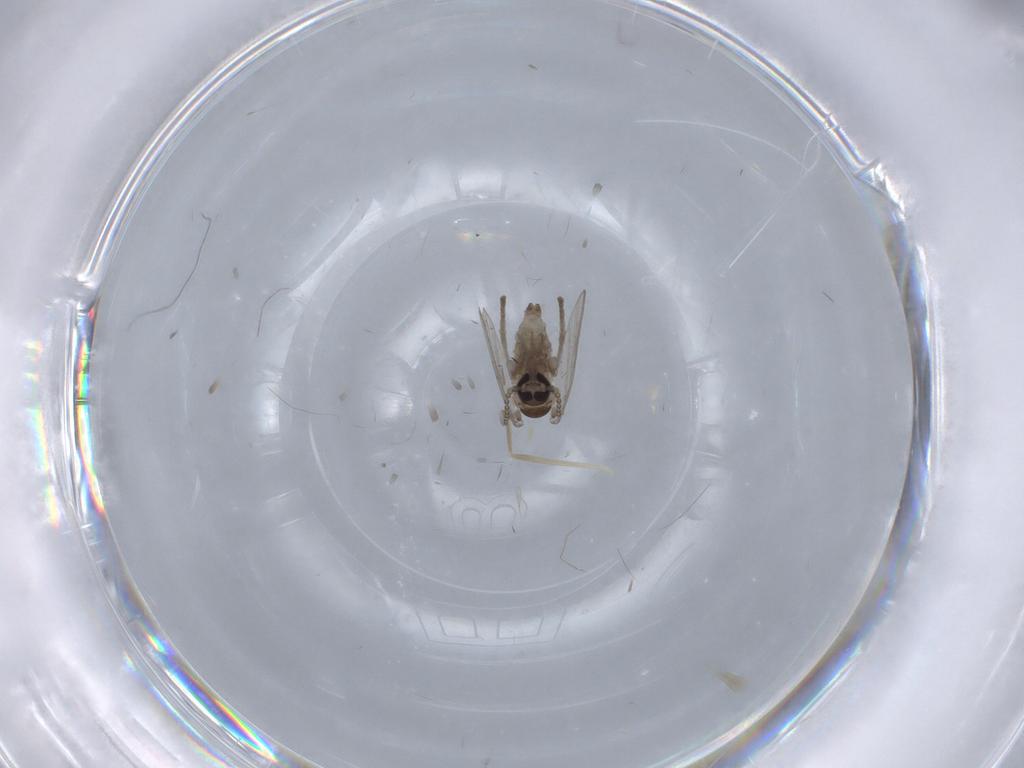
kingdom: Animalia
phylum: Arthropoda
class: Insecta
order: Diptera
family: Psychodidae
